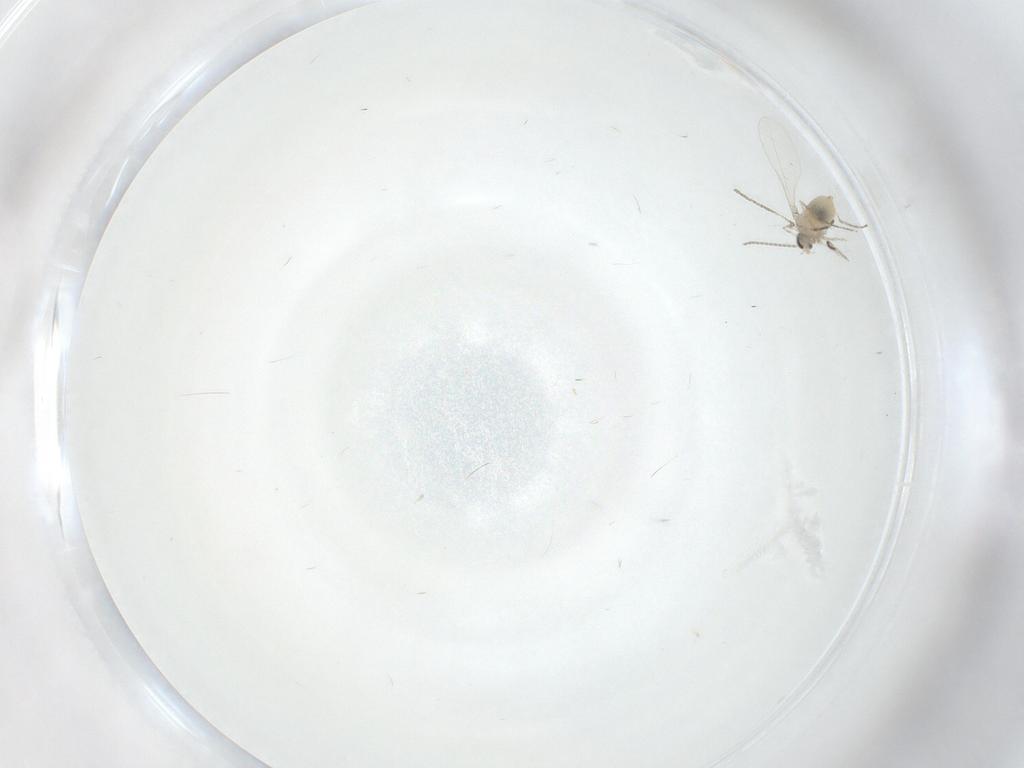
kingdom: Animalia
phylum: Arthropoda
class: Insecta
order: Diptera
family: Cecidomyiidae
